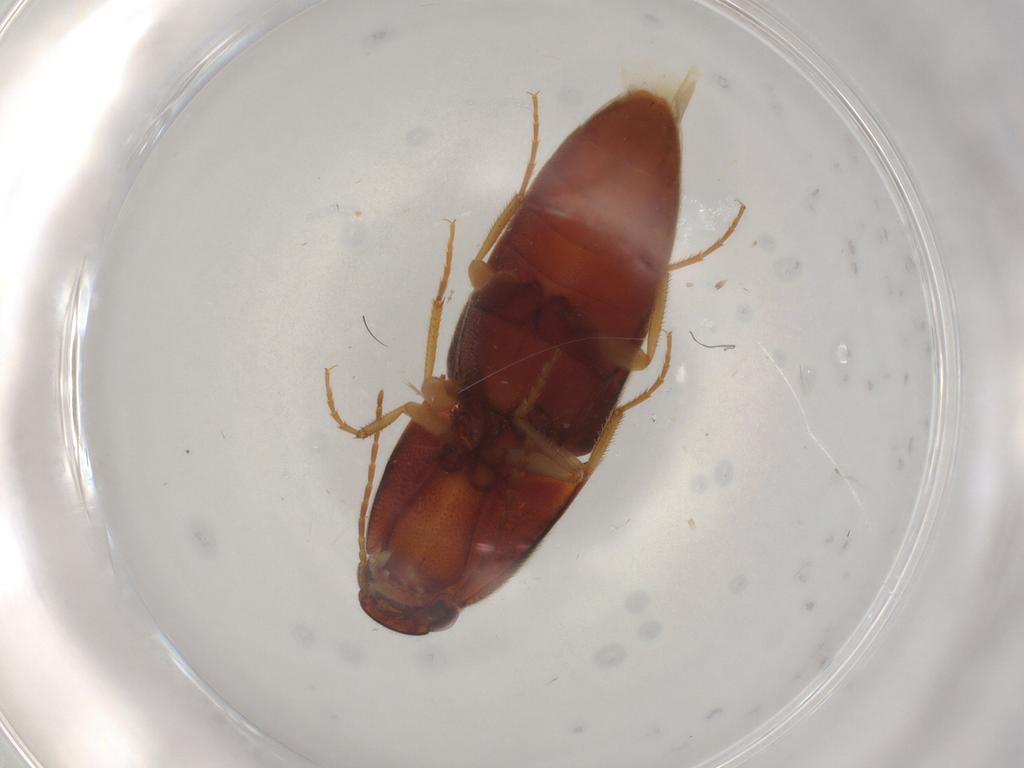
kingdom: Animalia
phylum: Arthropoda
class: Insecta
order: Coleoptera
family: Elateridae
